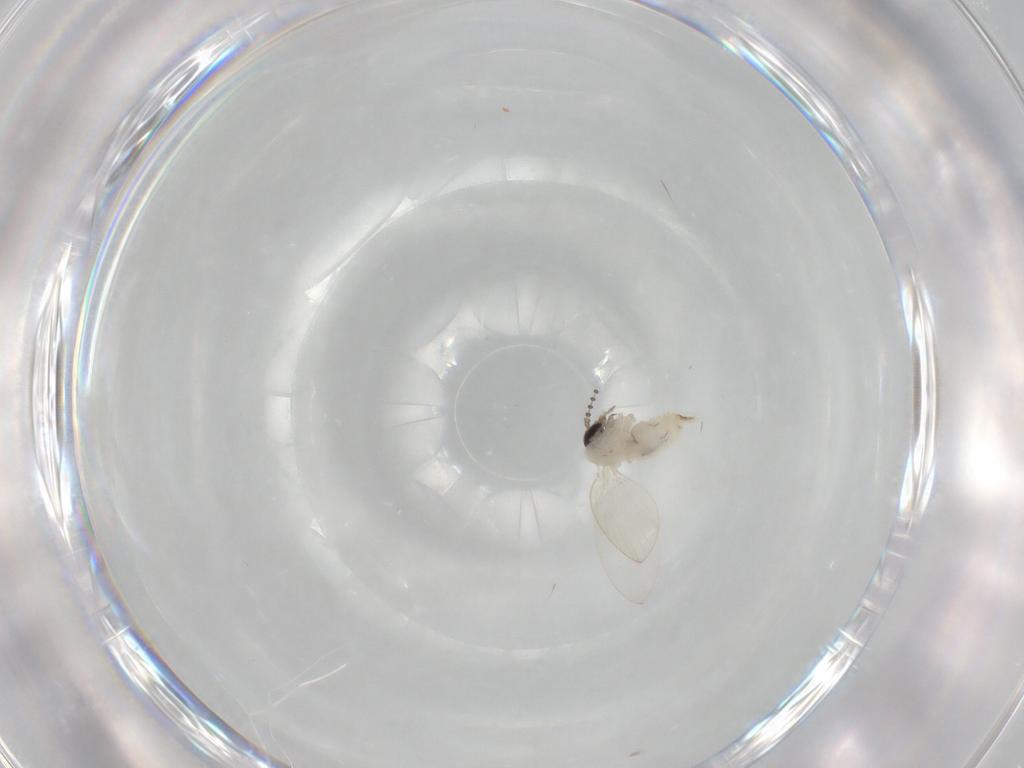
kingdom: Animalia
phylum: Arthropoda
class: Insecta
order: Diptera
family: Psychodidae
